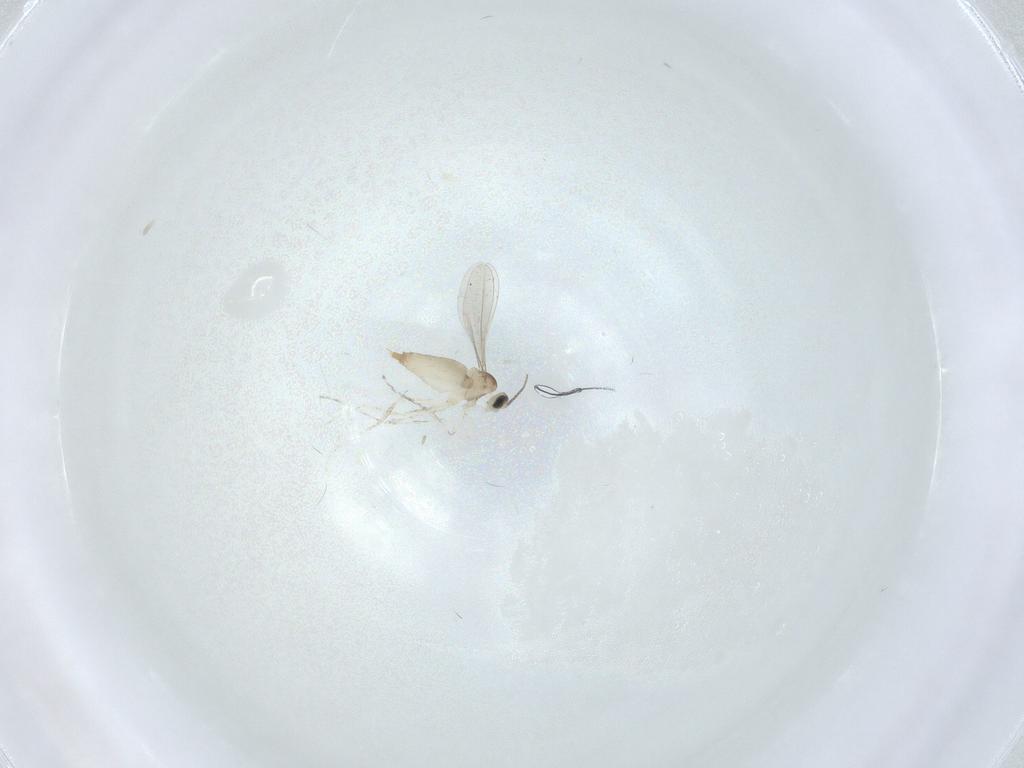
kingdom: Animalia
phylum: Arthropoda
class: Insecta
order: Diptera
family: Cecidomyiidae
